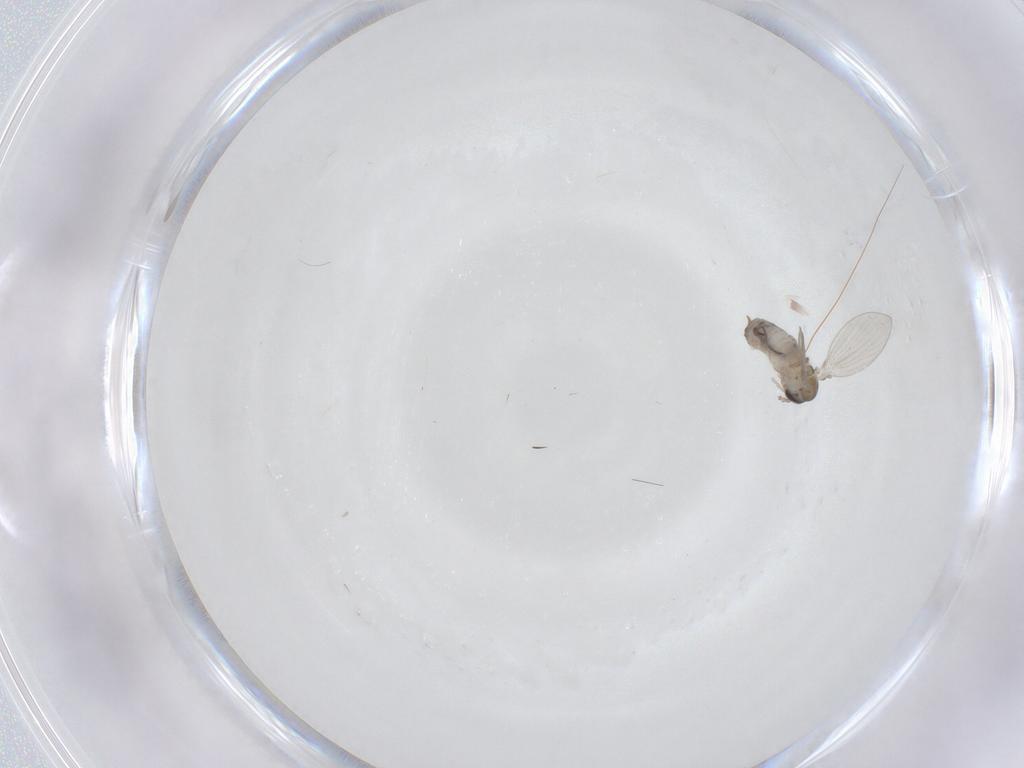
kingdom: Animalia
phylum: Arthropoda
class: Insecta
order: Diptera
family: Psychodidae
